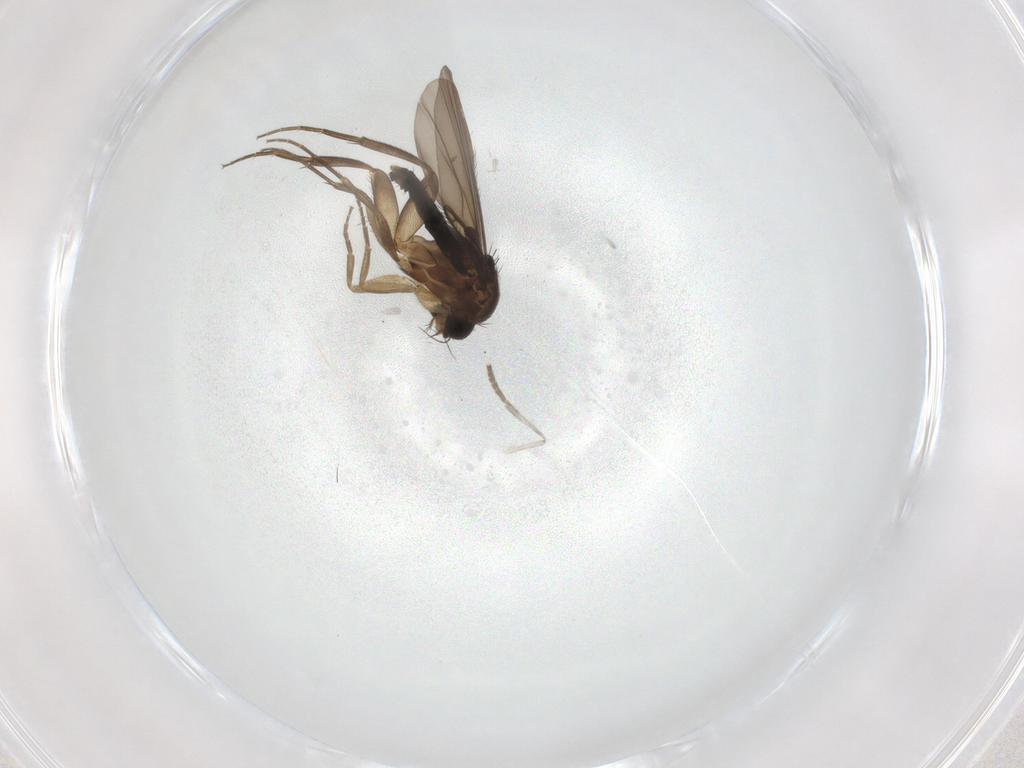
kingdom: Animalia
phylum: Arthropoda
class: Insecta
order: Diptera
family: Phoridae
